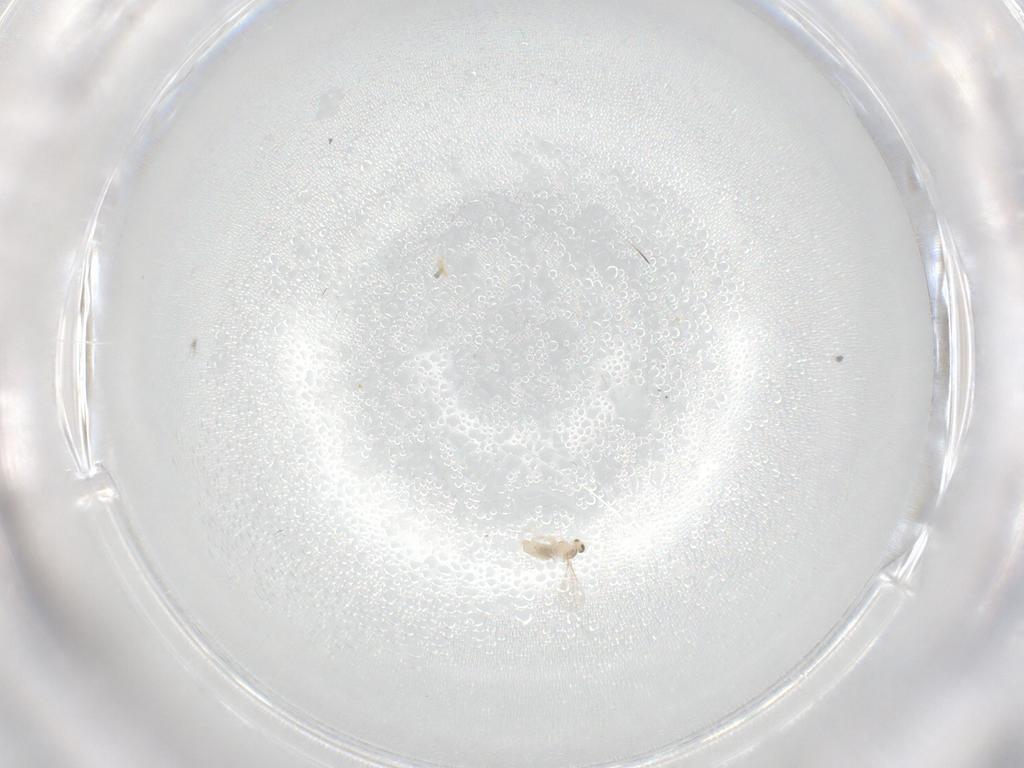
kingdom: Animalia
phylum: Arthropoda
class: Insecta
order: Diptera
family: Ceratopogonidae
